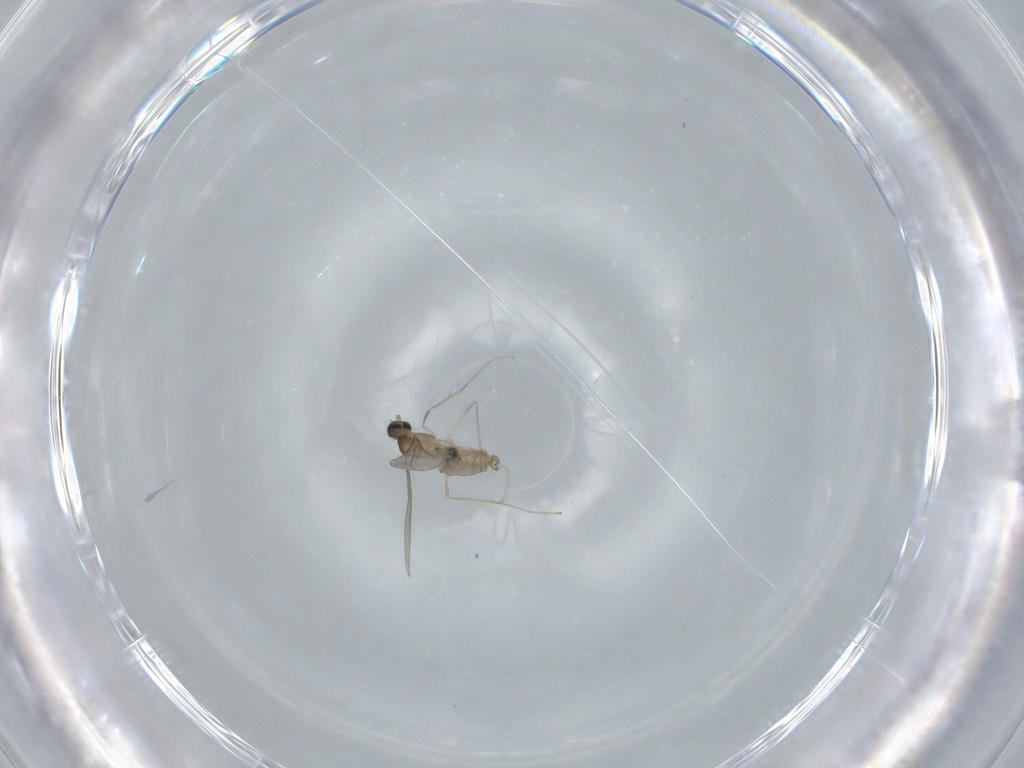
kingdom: Animalia
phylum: Arthropoda
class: Insecta
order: Diptera
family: Cecidomyiidae
